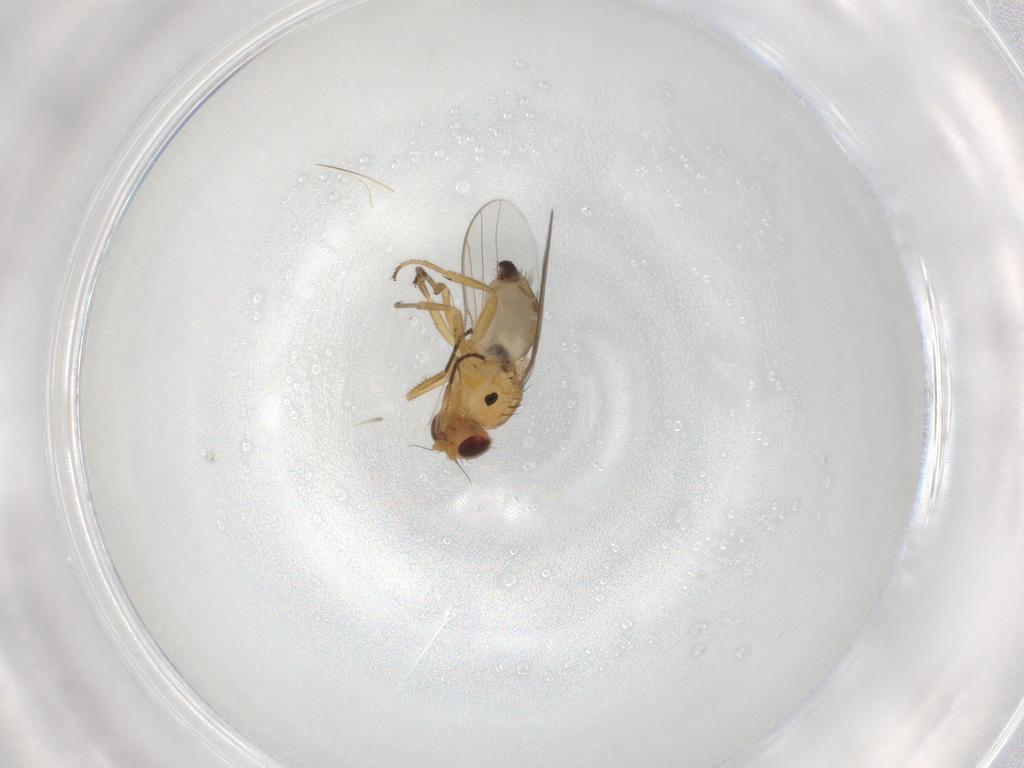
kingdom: Animalia
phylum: Arthropoda
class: Insecta
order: Diptera
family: Chloropidae
